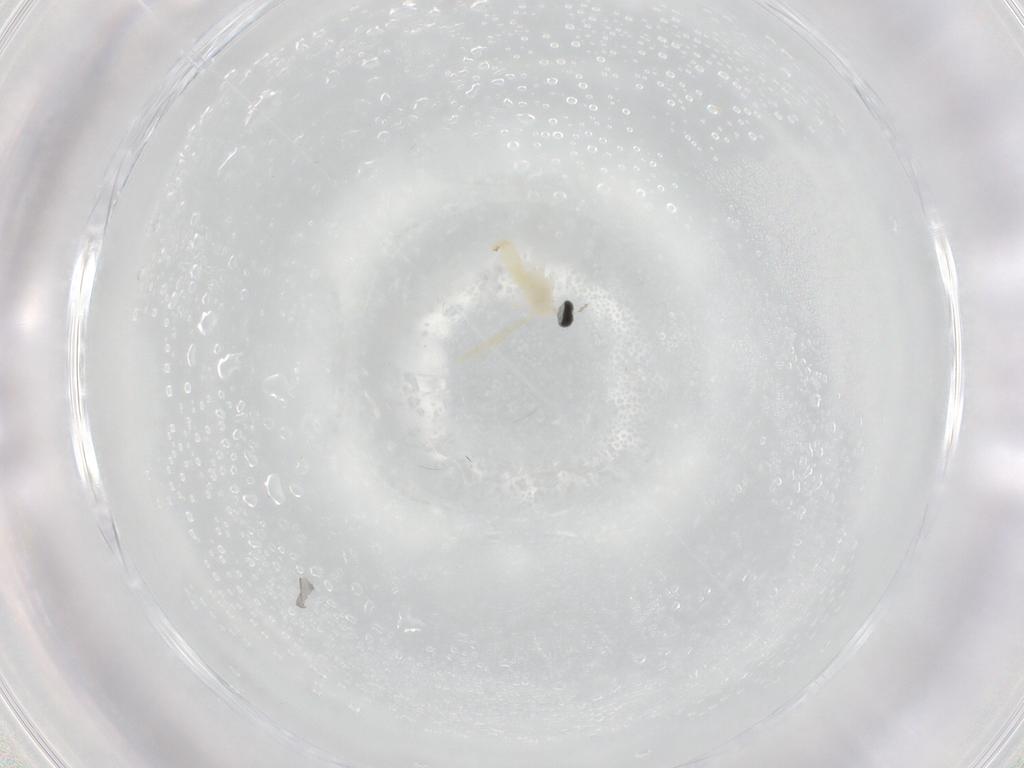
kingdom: Animalia
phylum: Arthropoda
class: Insecta
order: Diptera
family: Cecidomyiidae
